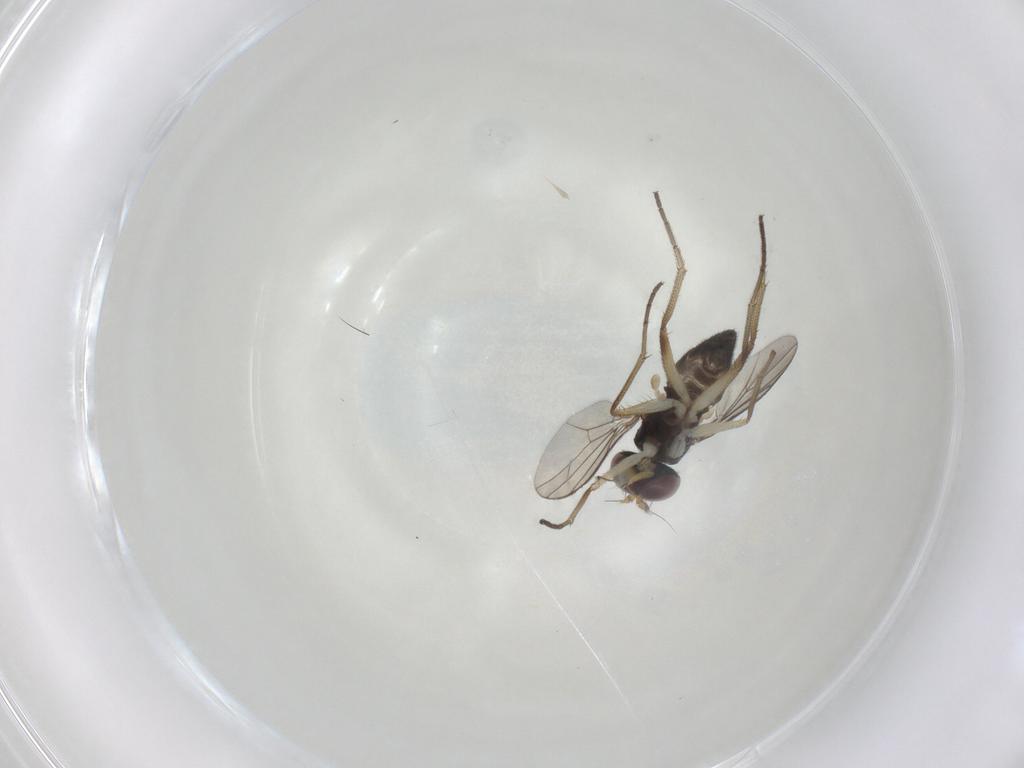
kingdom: Animalia
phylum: Arthropoda
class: Insecta
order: Diptera
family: Dolichopodidae
